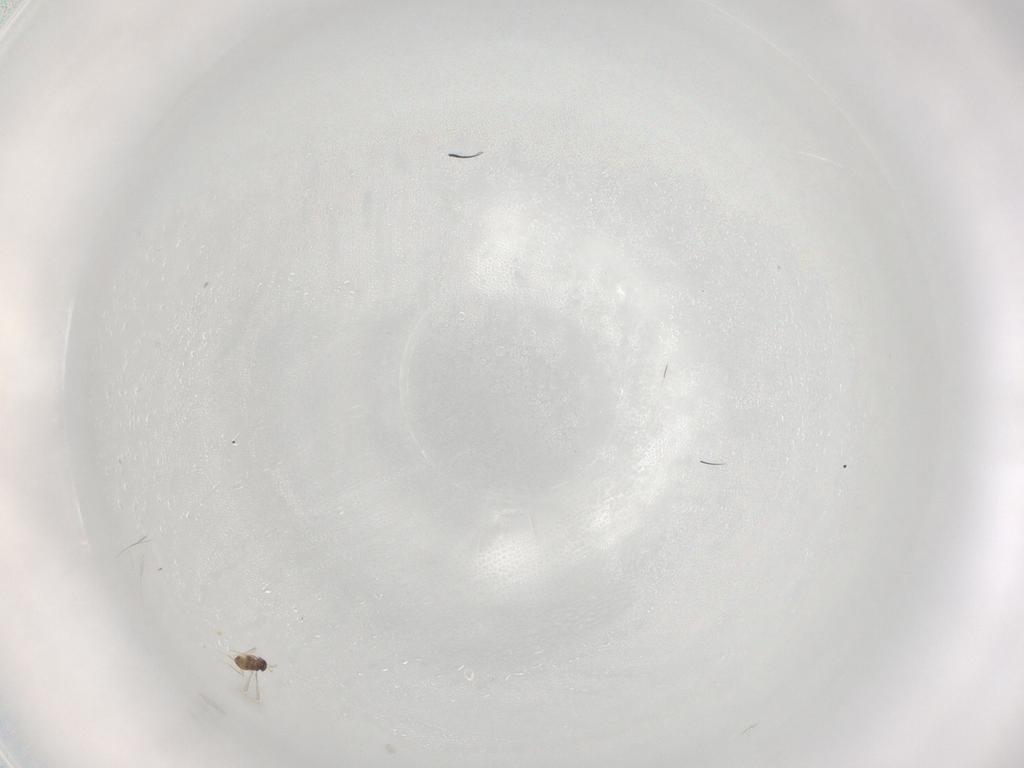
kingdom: Animalia
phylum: Arthropoda
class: Insecta
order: Hymenoptera
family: Mymaridae
